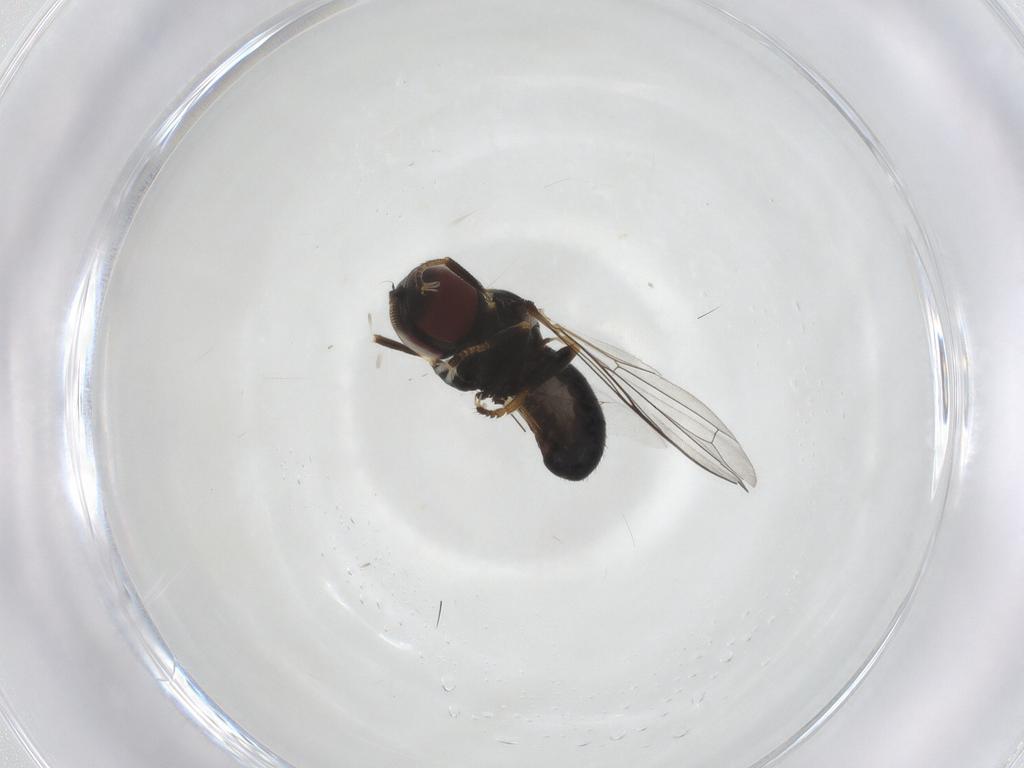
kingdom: Animalia
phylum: Arthropoda
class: Insecta
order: Diptera
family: Pipunculidae
